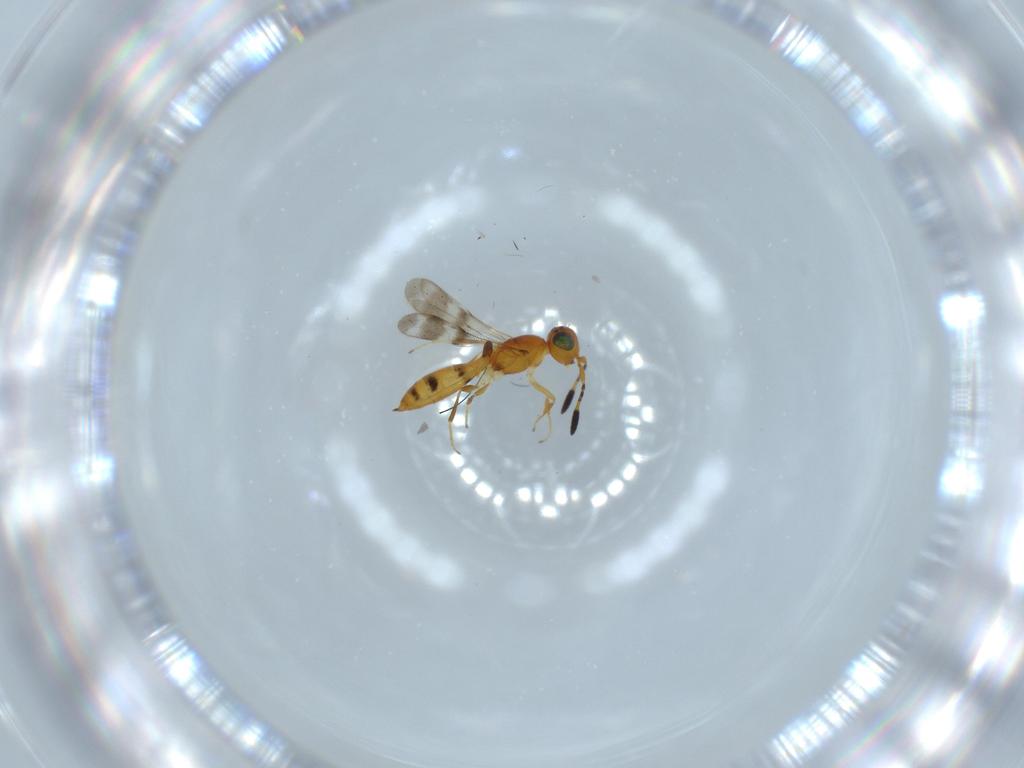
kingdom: Animalia
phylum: Arthropoda
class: Insecta
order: Hymenoptera
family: Scelionidae
